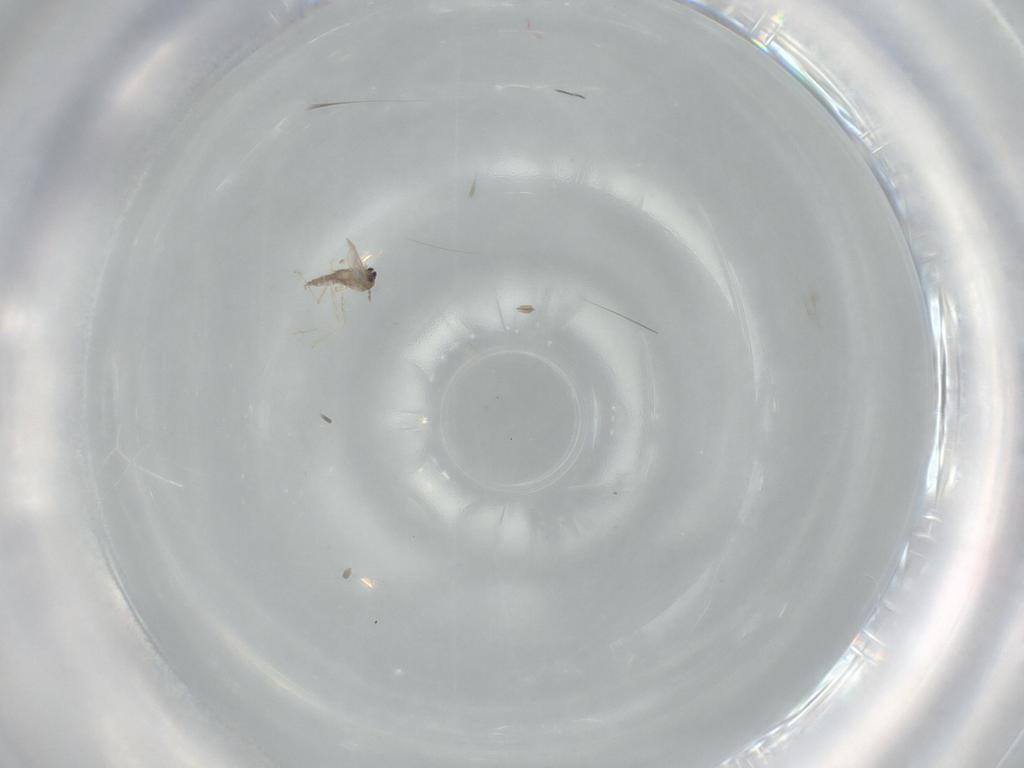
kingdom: Animalia
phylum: Arthropoda
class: Insecta
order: Diptera
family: Cecidomyiidae
